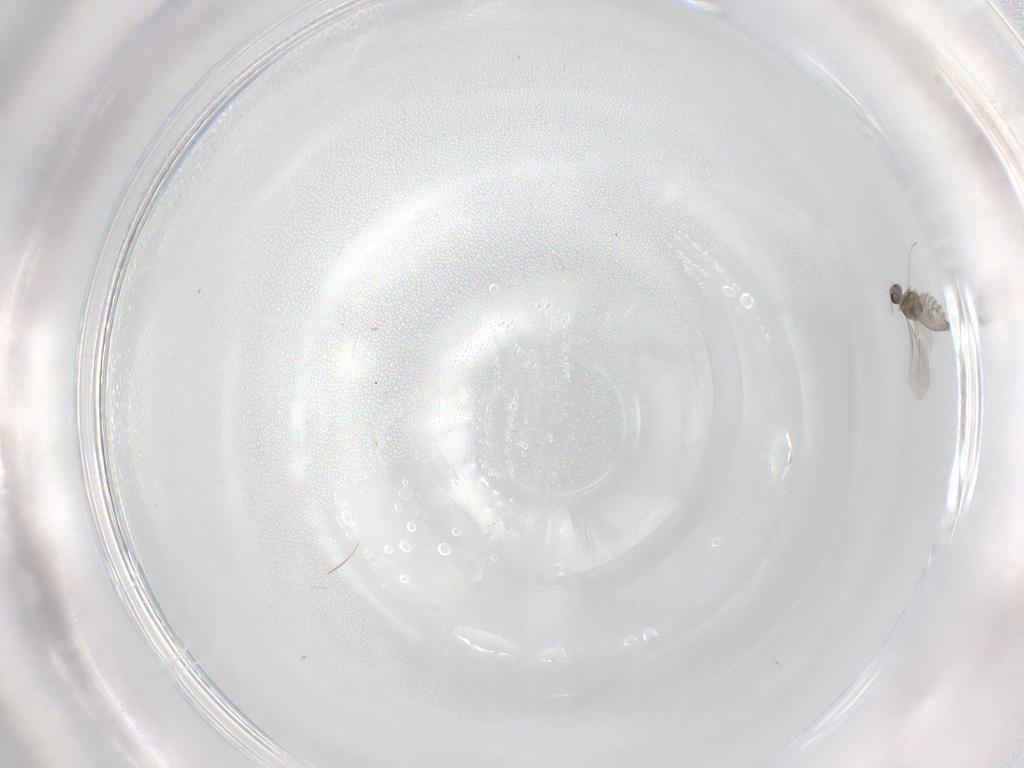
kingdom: Animalia
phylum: Arthropoda
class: Insecta
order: Diptera
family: Cecidomyiidae
